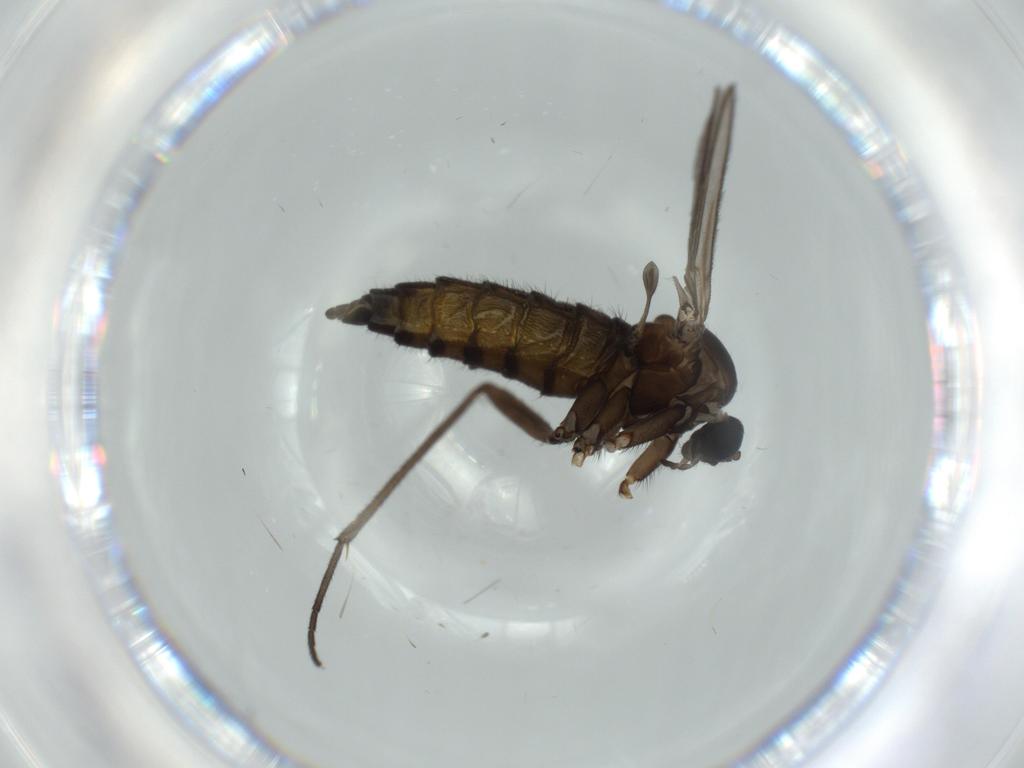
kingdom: Animalia
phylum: Arthropoda
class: Insecta
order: Diptera
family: Sciaridae
